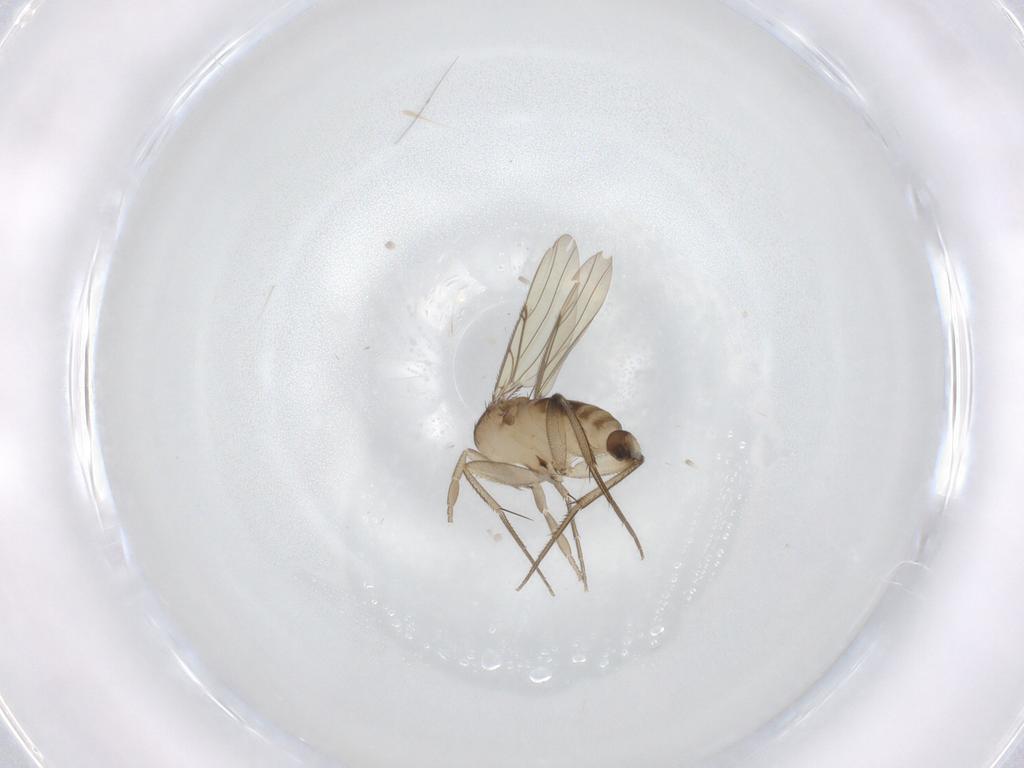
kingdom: Animalia
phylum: Arthropoda
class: Insecta
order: Diptera
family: Phoridae
